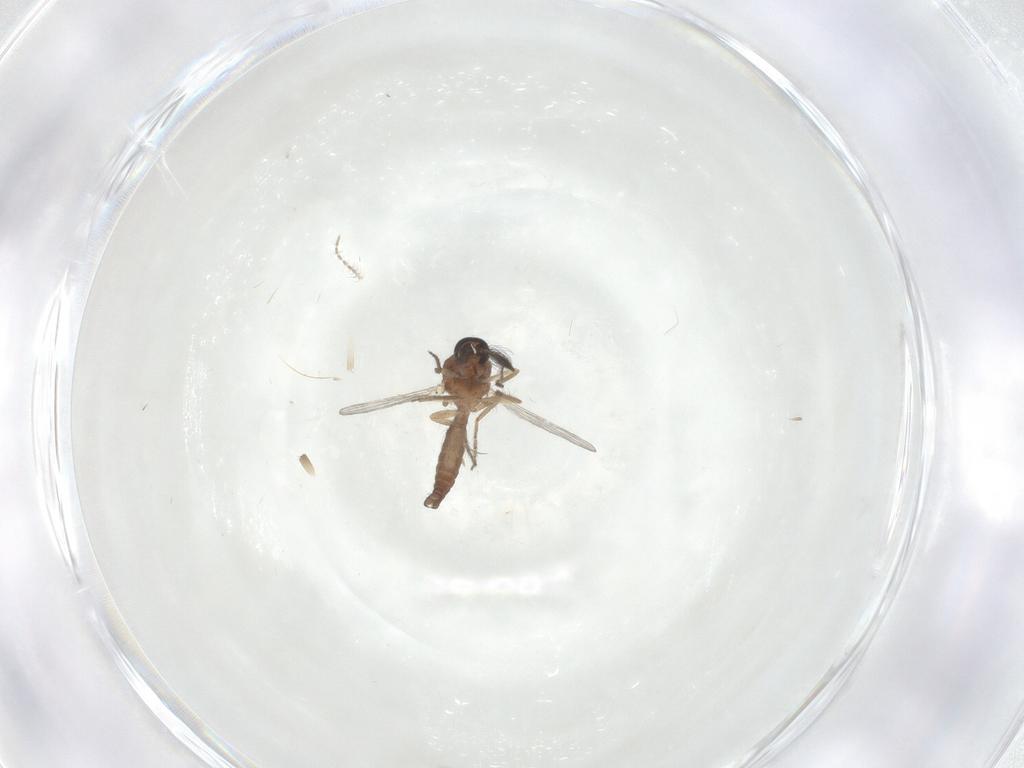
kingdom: Animalia
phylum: Arthropoda
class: Insecta
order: Diptera
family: Ceratopogonidae
